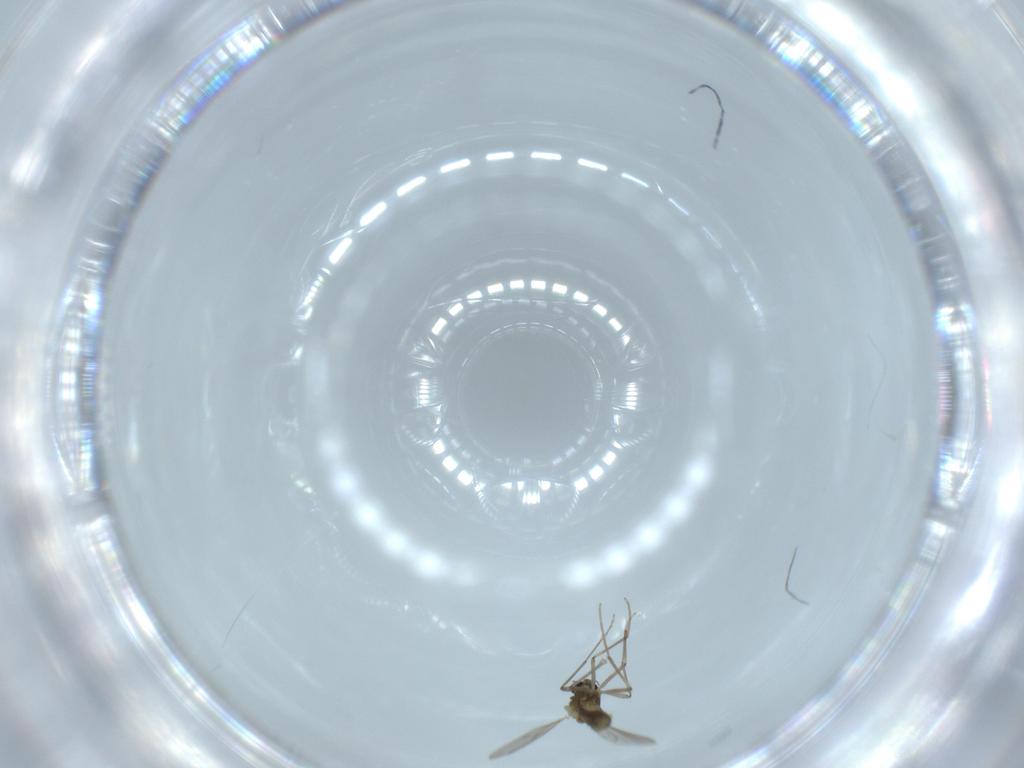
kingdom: Animalia
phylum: Arthropoda
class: Insecta
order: Diptera
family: Chironomidae
